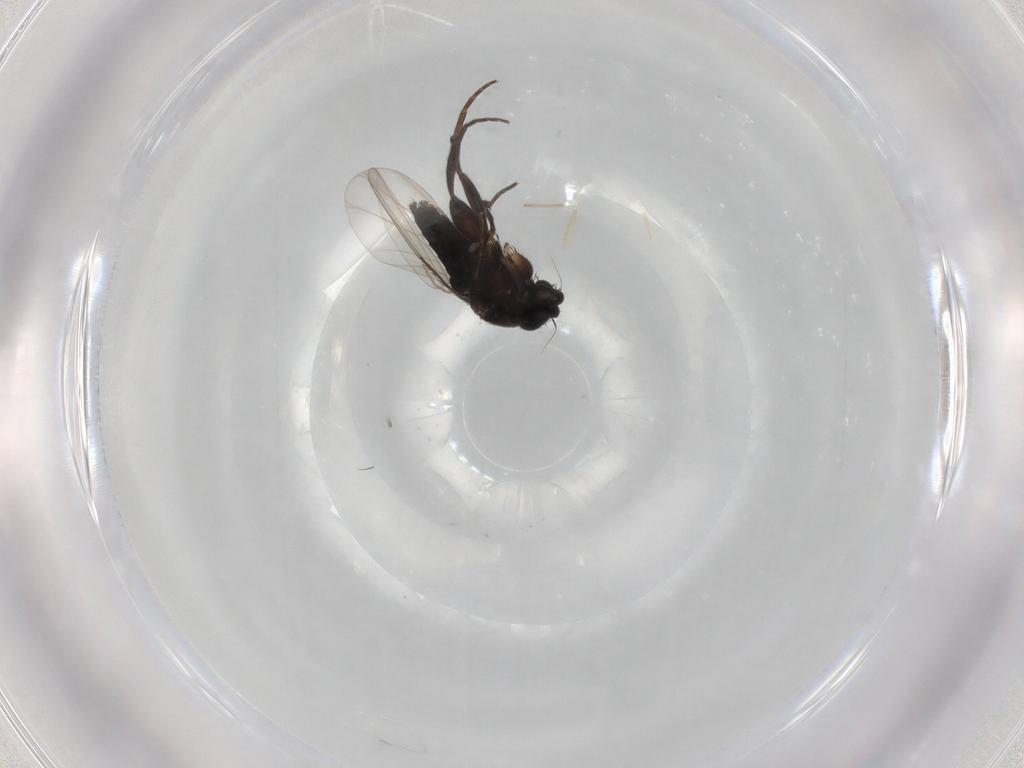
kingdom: Animalia
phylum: Arthropoda
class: Insecta
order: Diptera
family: Phoridae
